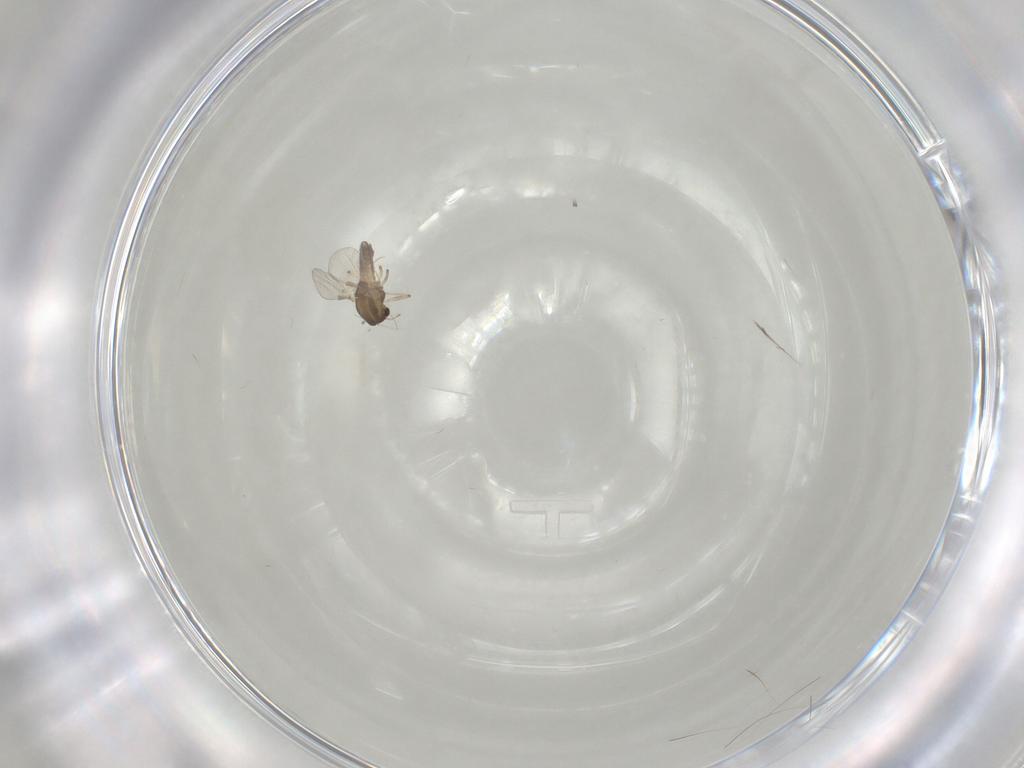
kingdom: Animalia
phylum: Arthropoda
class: Insecta
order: Diptera
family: Chironomidae
